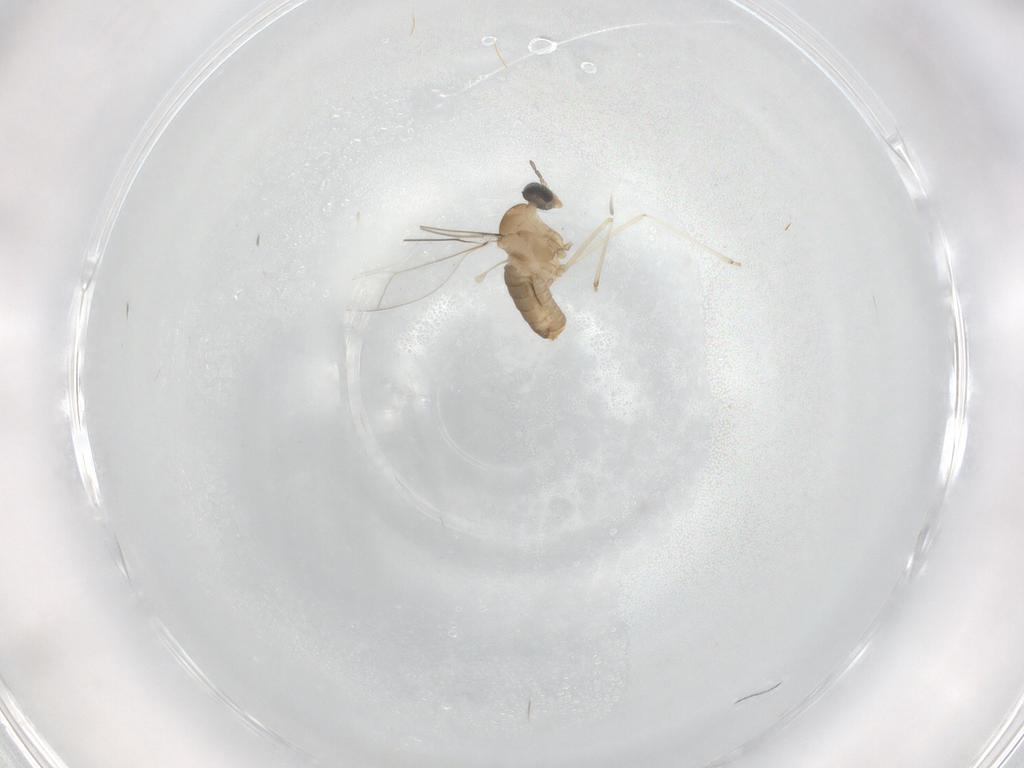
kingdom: Animalia
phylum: Arthropoda
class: Insecta
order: Diptera
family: Cecidomyiidae
